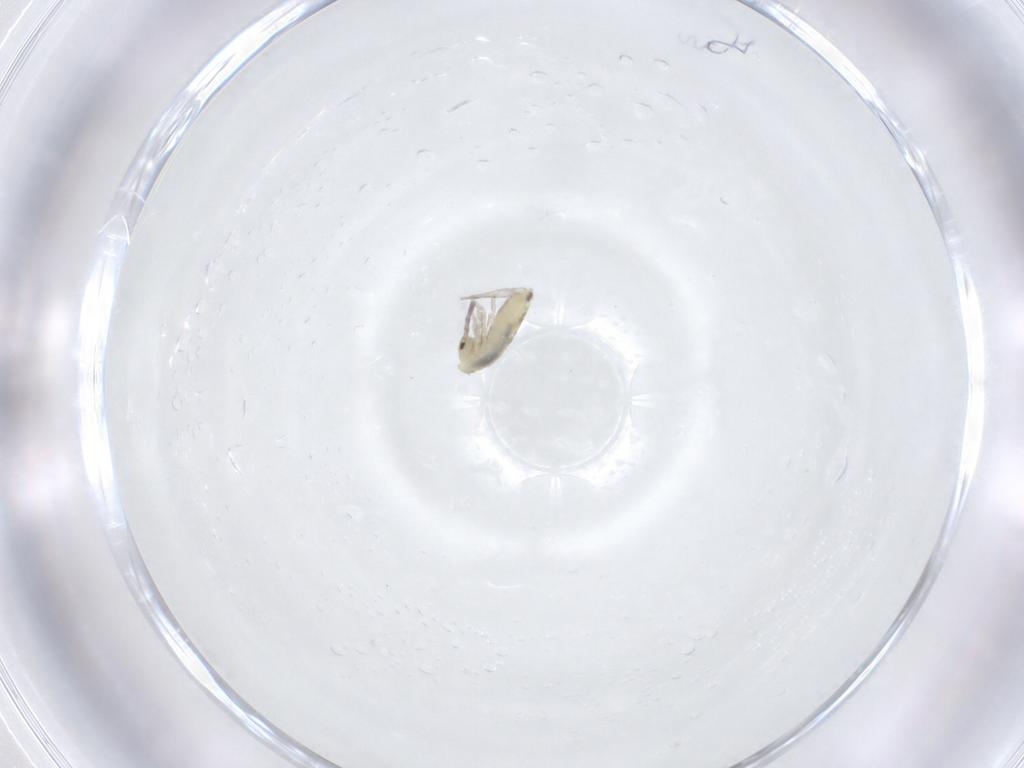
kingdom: Animalia
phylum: Arthropoda
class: Collembola
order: Entomobryomorpha
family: Entomobryidae
